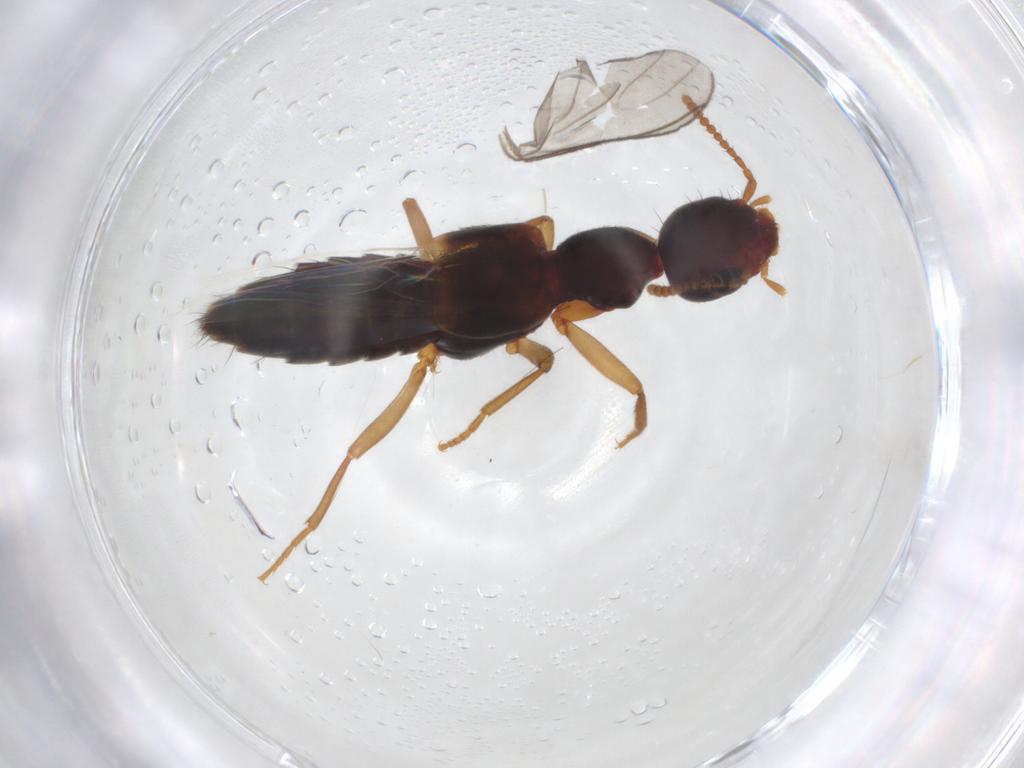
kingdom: Animalia
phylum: Arthropoda
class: Insecta
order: Coleoptera
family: Staphylinidae
